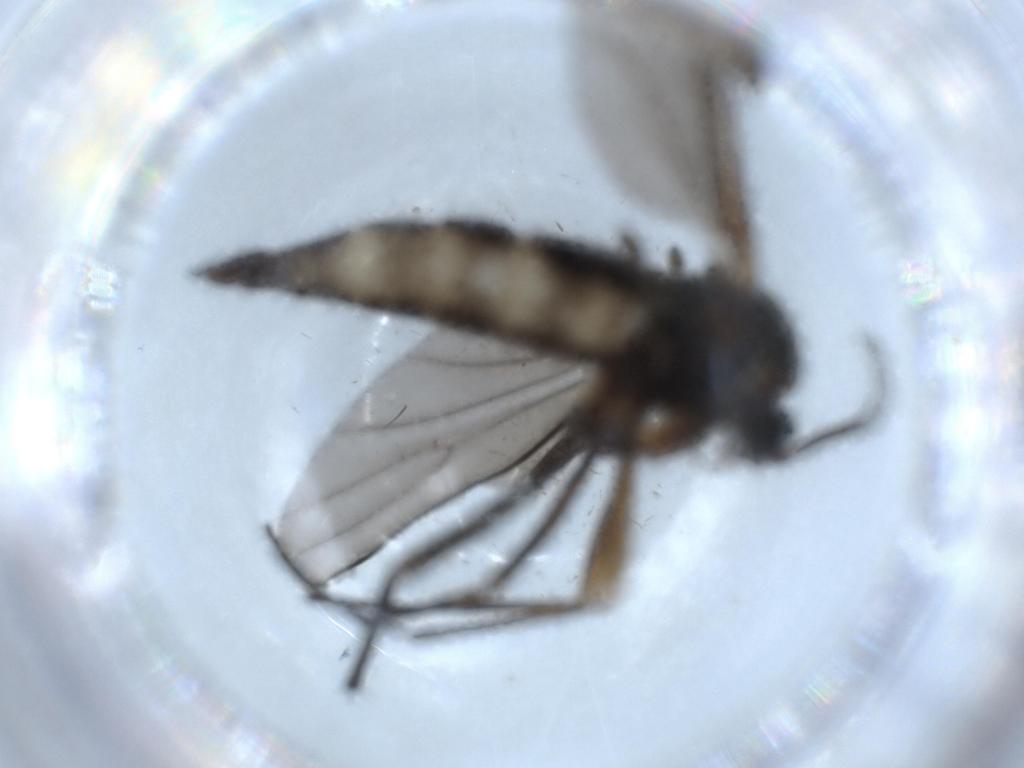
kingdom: Animalia
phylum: Arthropoda
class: Insecta
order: Diptera
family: Sciaridae
